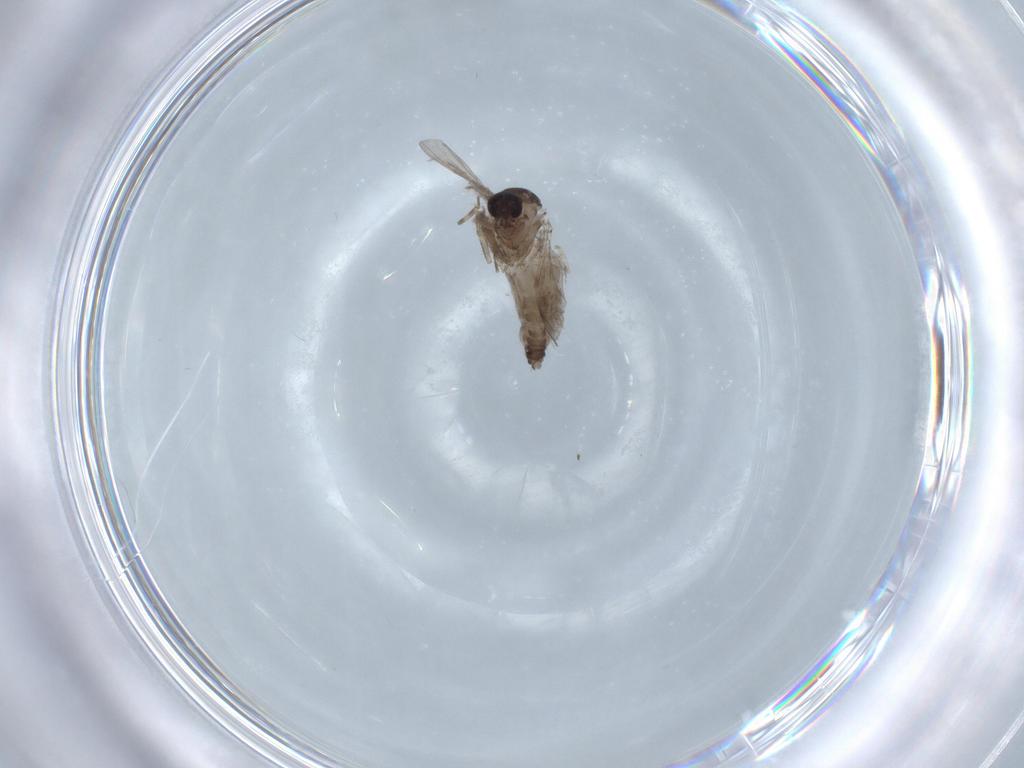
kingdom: Animalia
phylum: Arthropoda
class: Insecta
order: Diptera
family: Ceratopogonidae
